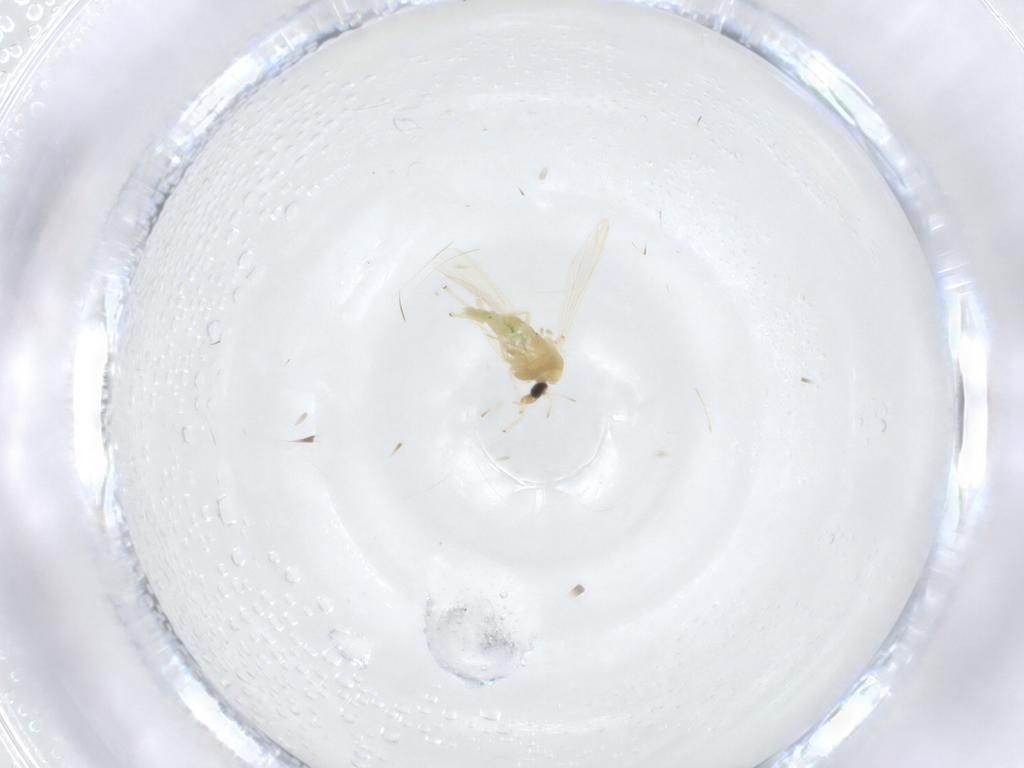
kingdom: Animalia
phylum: Arthropoda
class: Insecta
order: Diptera
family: Chironomidae
